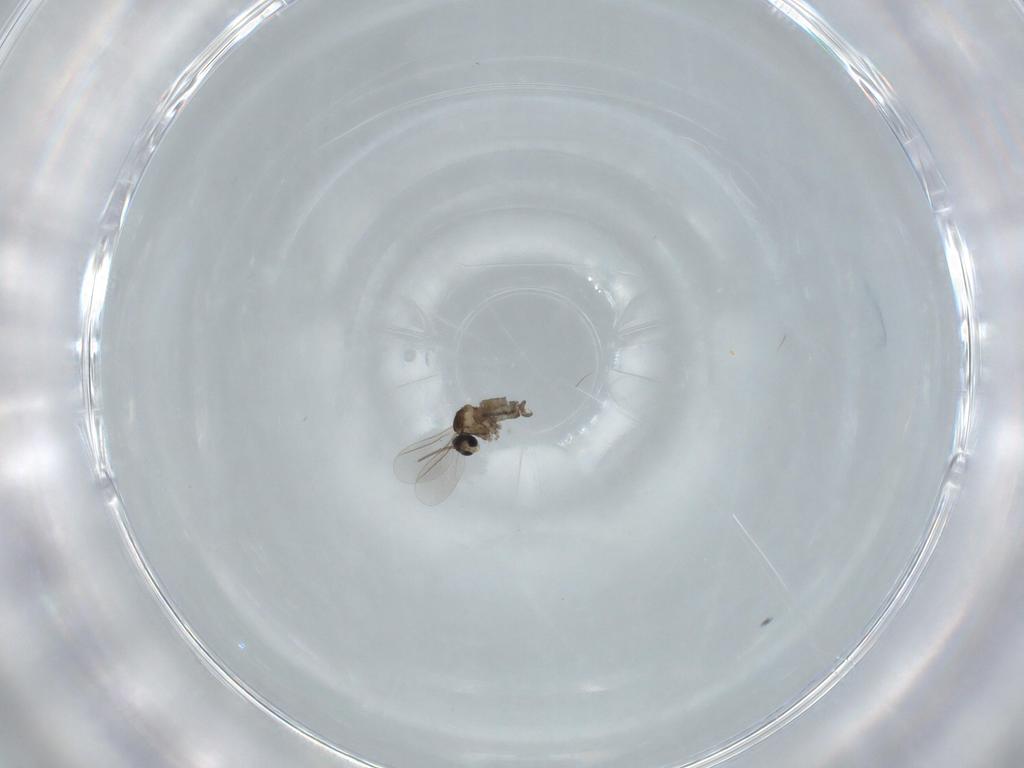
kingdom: Animalia
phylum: Arthropoda
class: Insecta
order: Diptera
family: Cecidomyiidae
